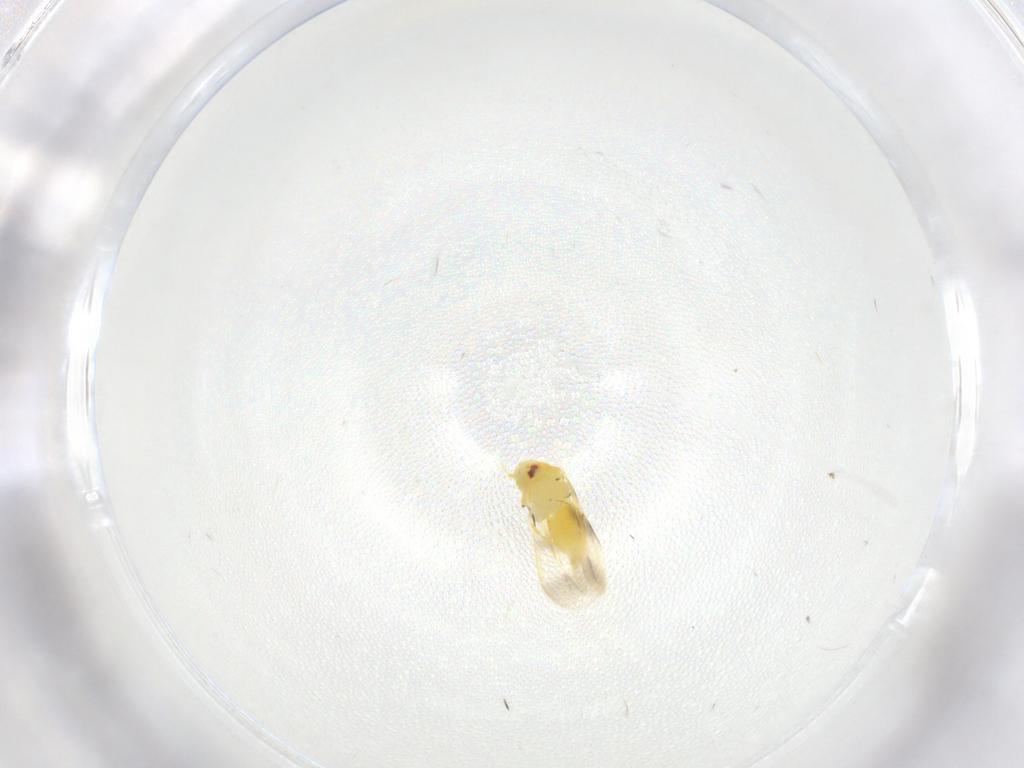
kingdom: Animalia
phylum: Arthropoda
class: Insecta
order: Hemiptera
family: Aleyrodidae
